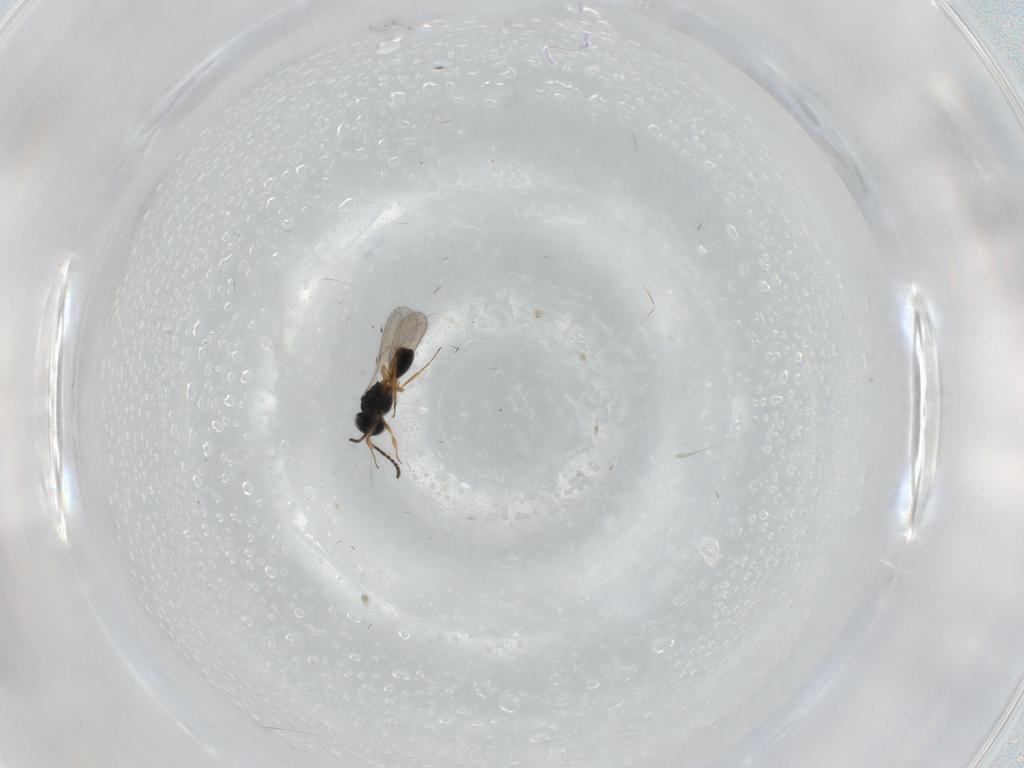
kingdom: Animalia
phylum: Arthropoda
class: Insecta
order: Hymenoptera
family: Scelionidae
